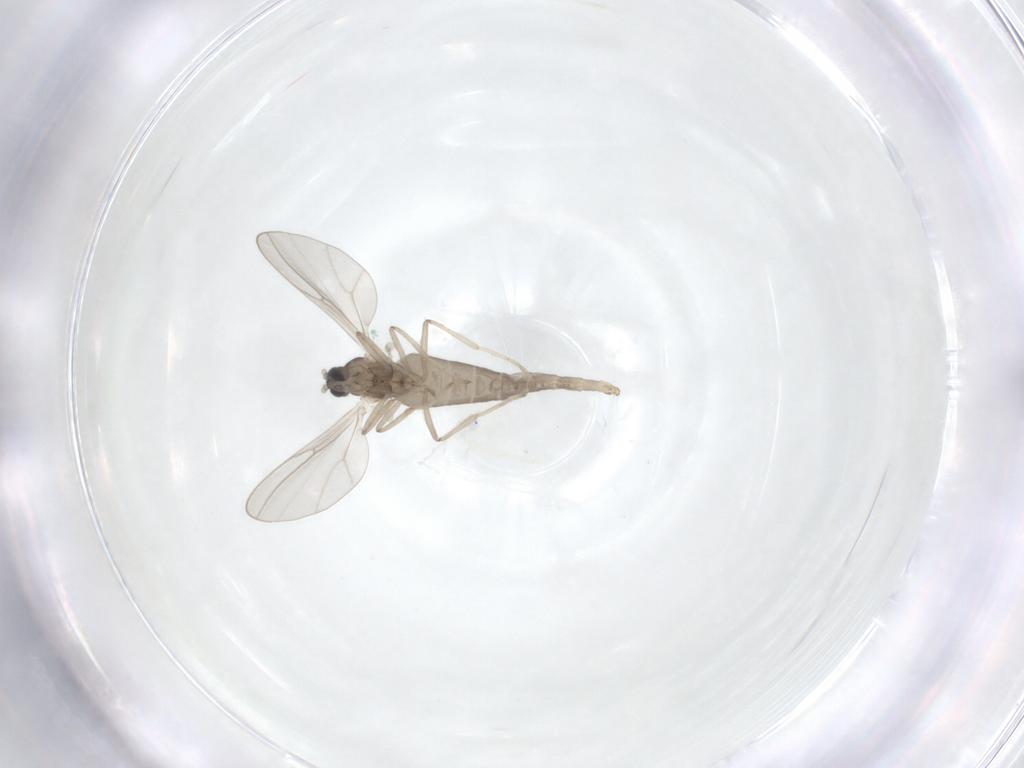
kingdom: Animalia
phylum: Arthropoda
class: Insecta
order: Diptera
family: Cecidomyiidae
